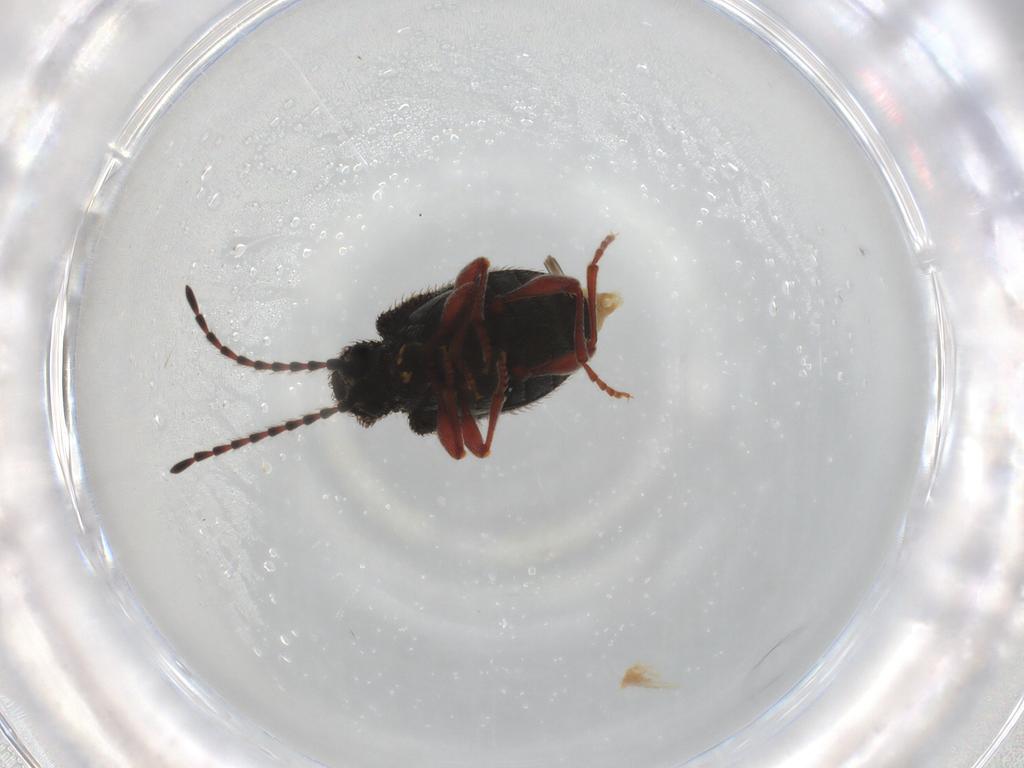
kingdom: Animalia
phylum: Arthropoda
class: Insecta
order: Coleoptera
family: Ptinidae
